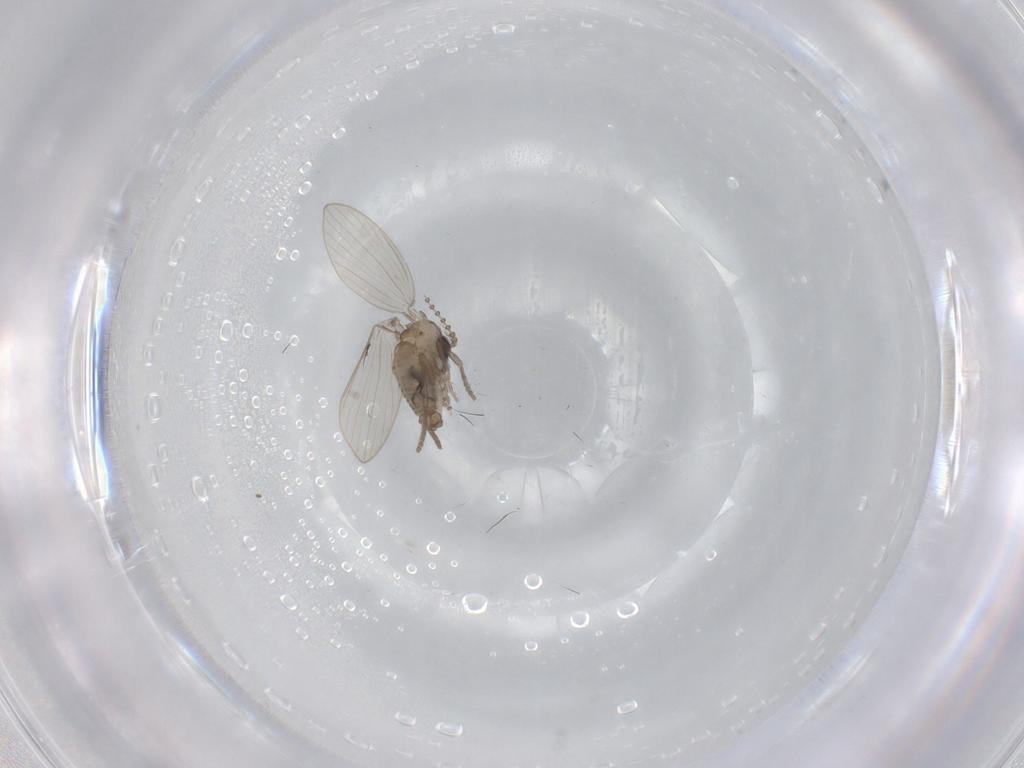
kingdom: Animalia
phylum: Arthropoda
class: Insecta
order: Diptera
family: Psychodidae
